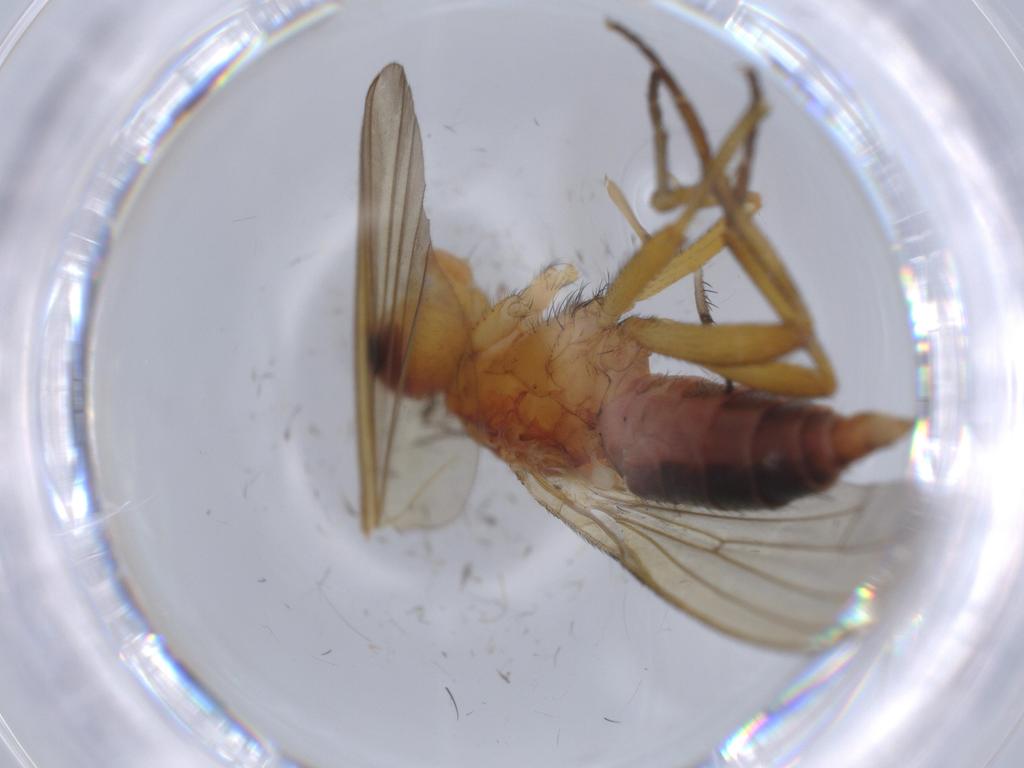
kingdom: Animalia
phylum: Arthropoda
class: Insecta
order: Diptera
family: Heleomyzidae
